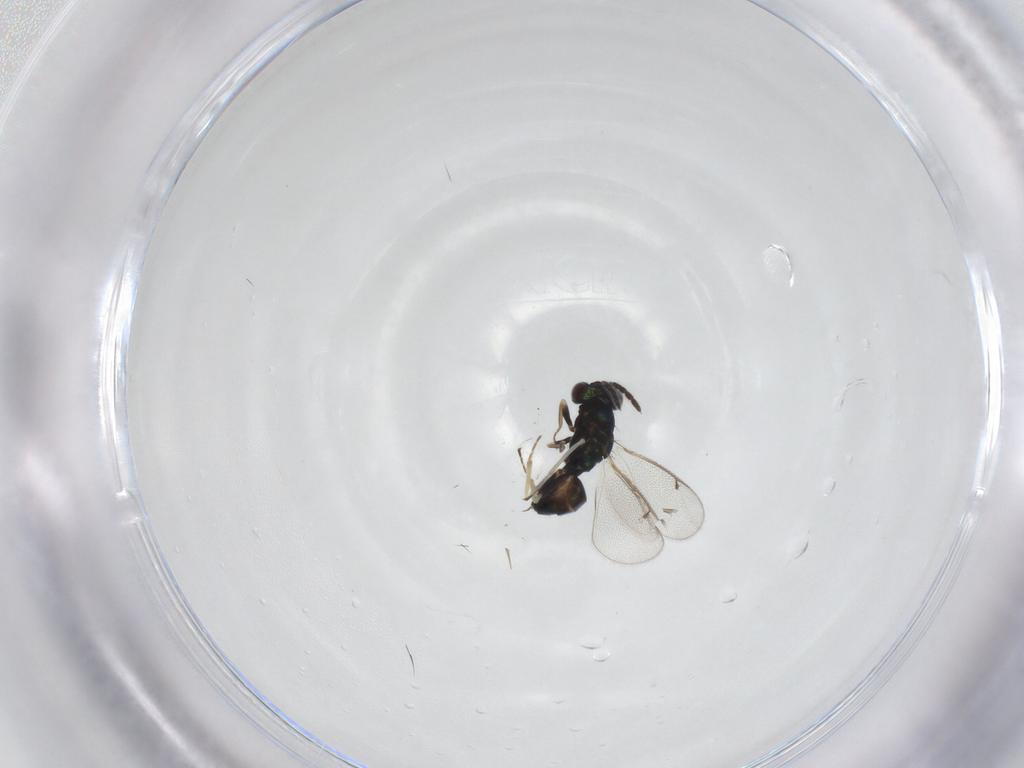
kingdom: Animalia
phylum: Arthropoda
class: Insecta
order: Hymenoptera
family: Eulophidae
